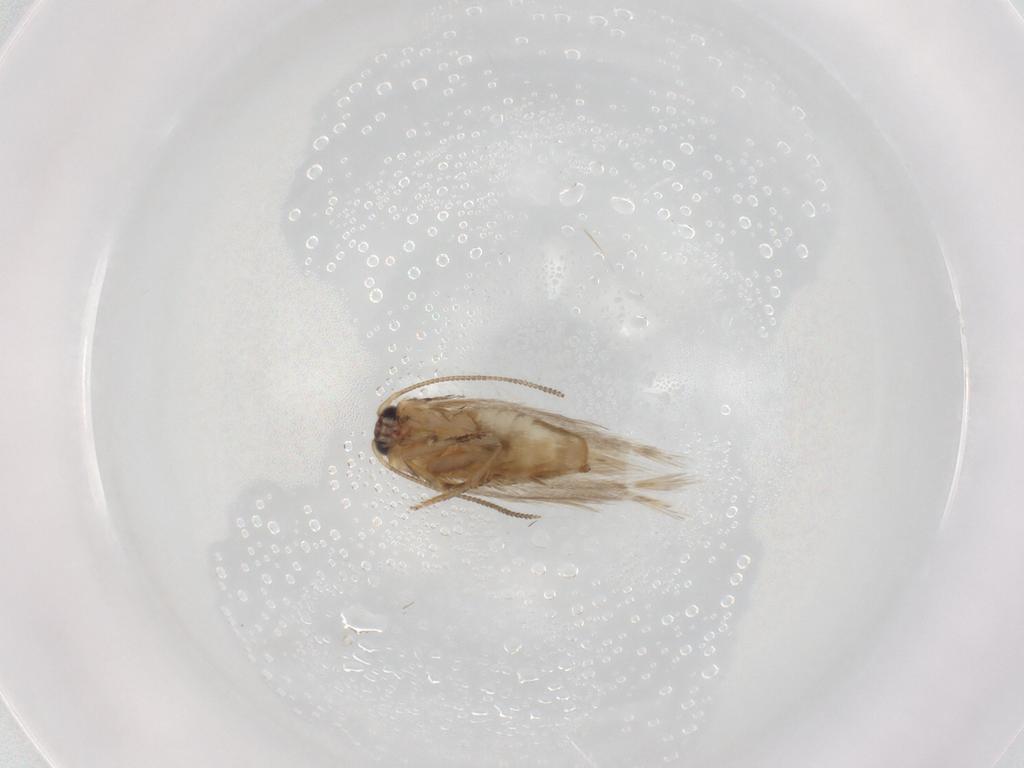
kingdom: Animalia
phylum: Arthropoda
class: Insecta
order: Lepidoptera
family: Nepticulidae
